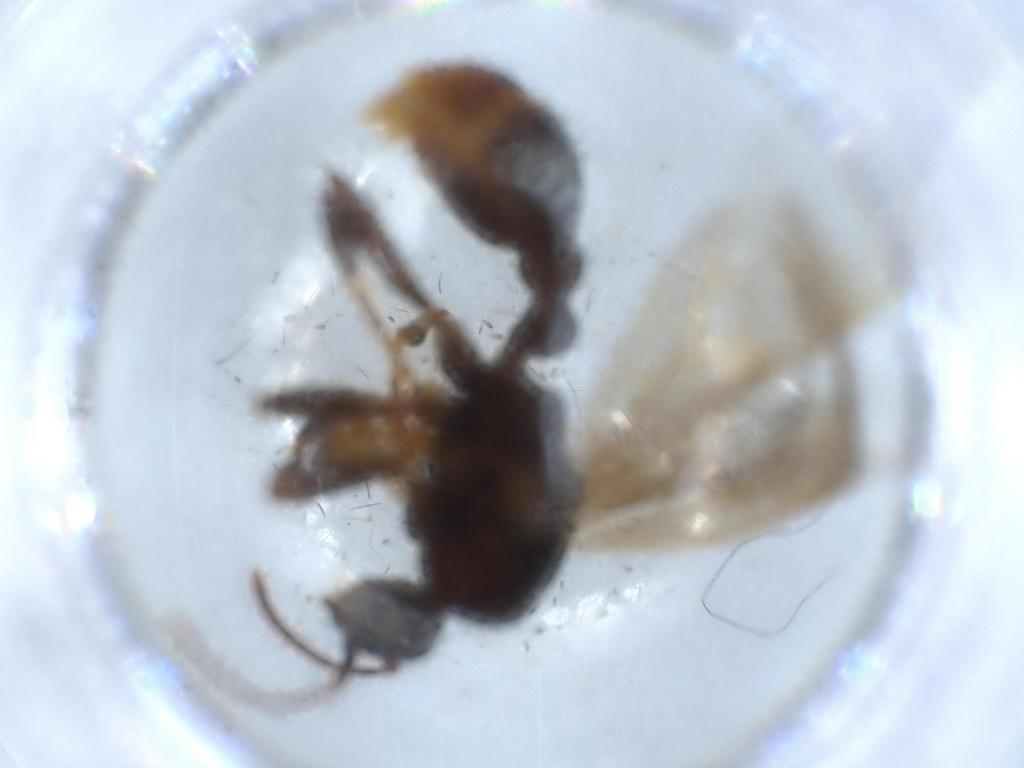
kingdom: Animalia
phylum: Arthropoda
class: Insecta
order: Hymenoptera
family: Formicidae
